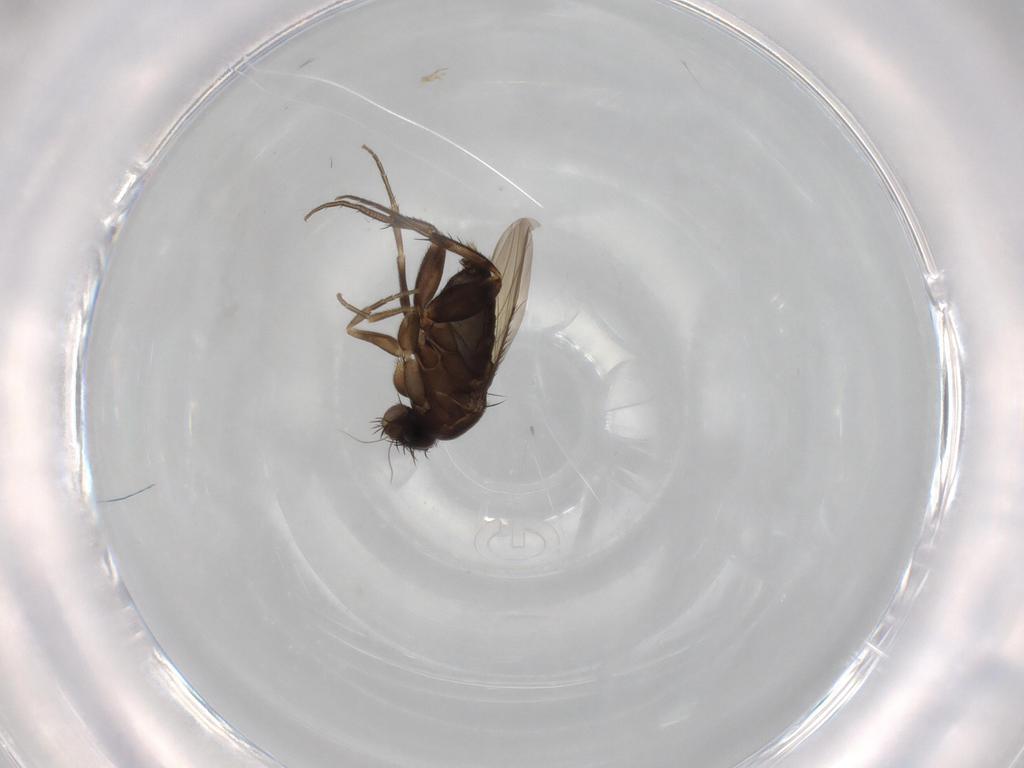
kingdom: Animalia
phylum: Arthropoda
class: Insecta
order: Diptera
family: Phoridae
